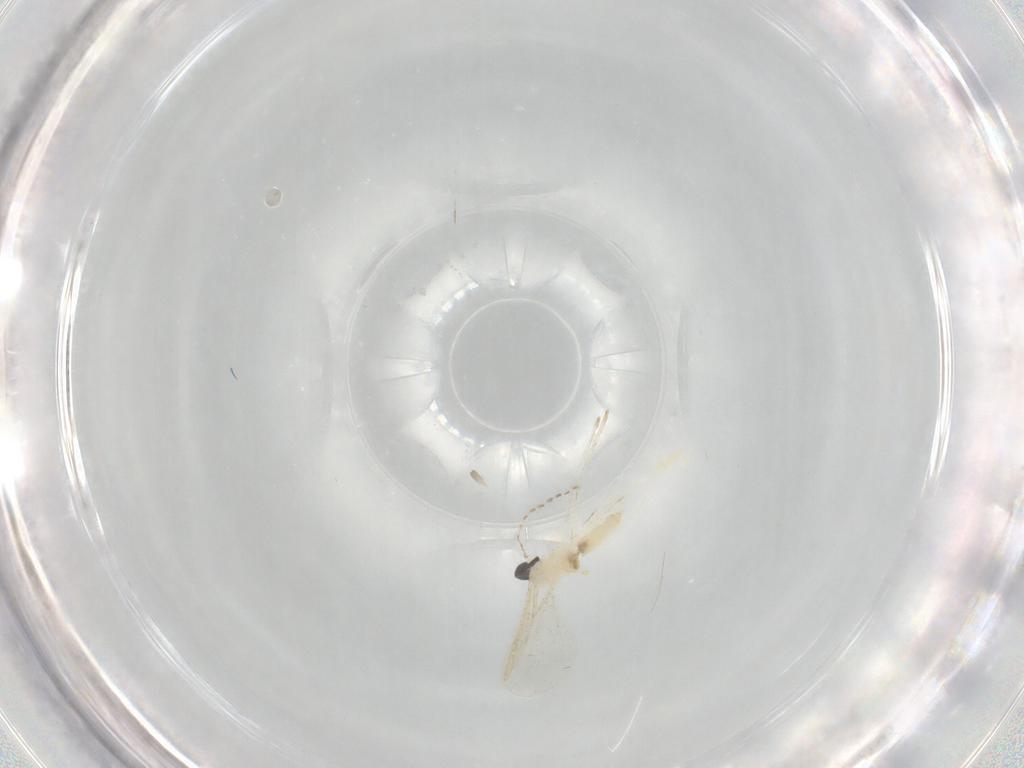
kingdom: Animalia
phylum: Arthropoda
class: Insecta
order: Diptera
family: Cecidomyiidae
